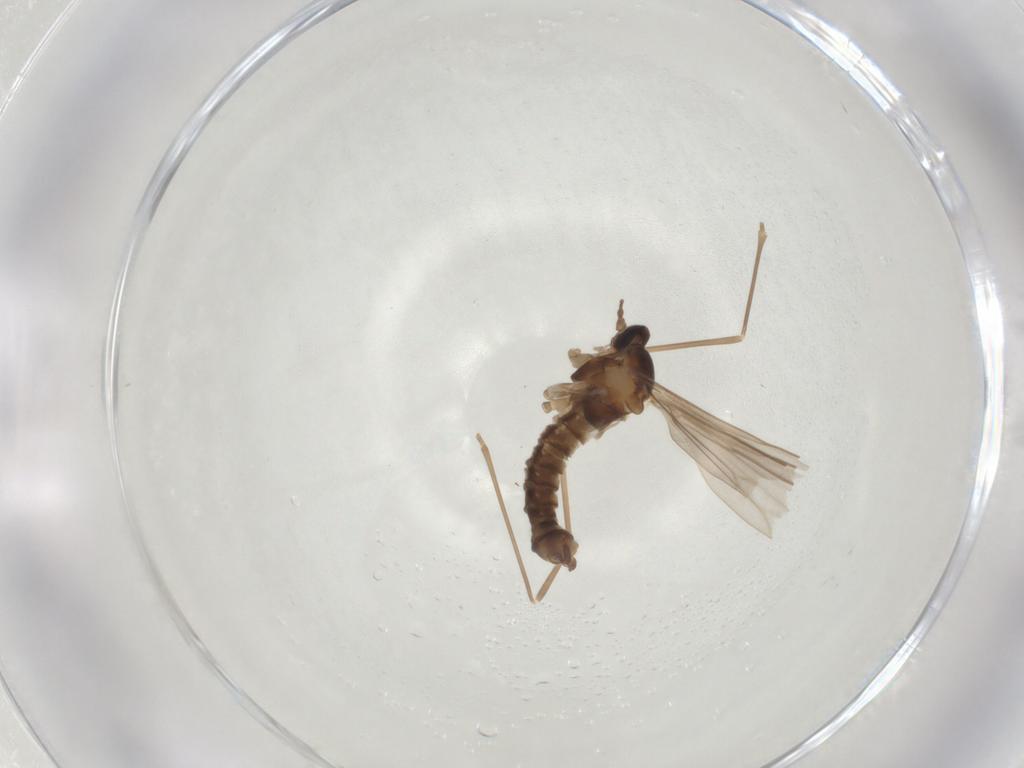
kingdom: Animalia
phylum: Arthropoda
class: Insecta
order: Diptera
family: Cecidomyiidae
